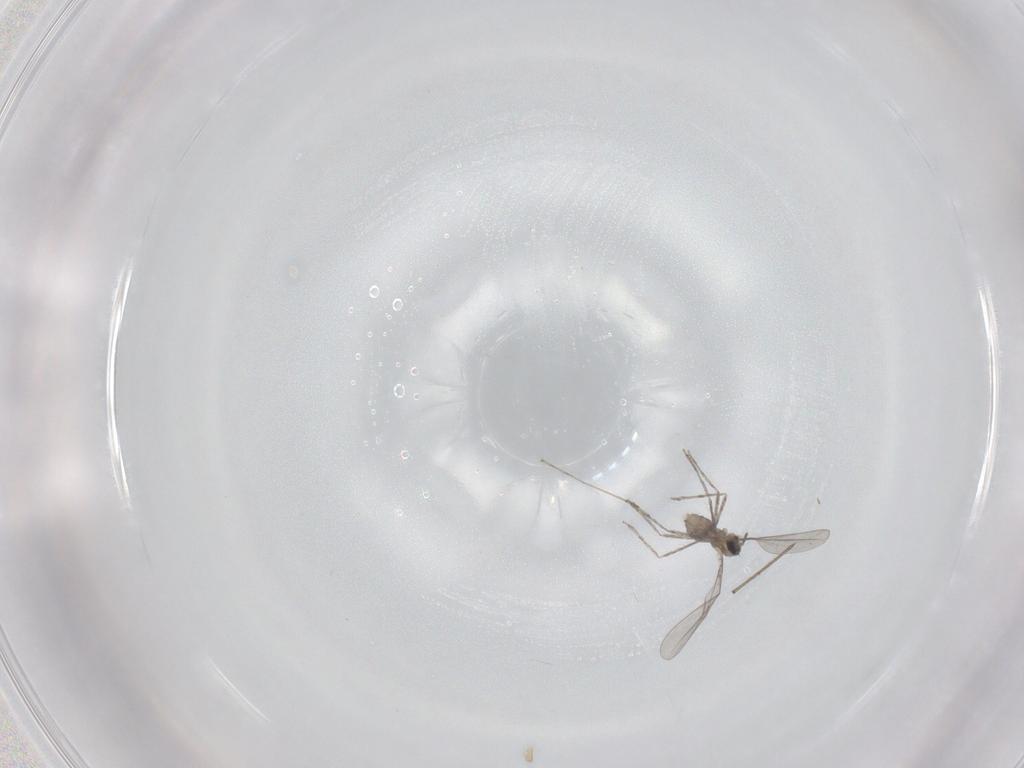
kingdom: Animalia
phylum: Arthropoda
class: Insecta
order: Diptera
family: Cecidomyiidae
